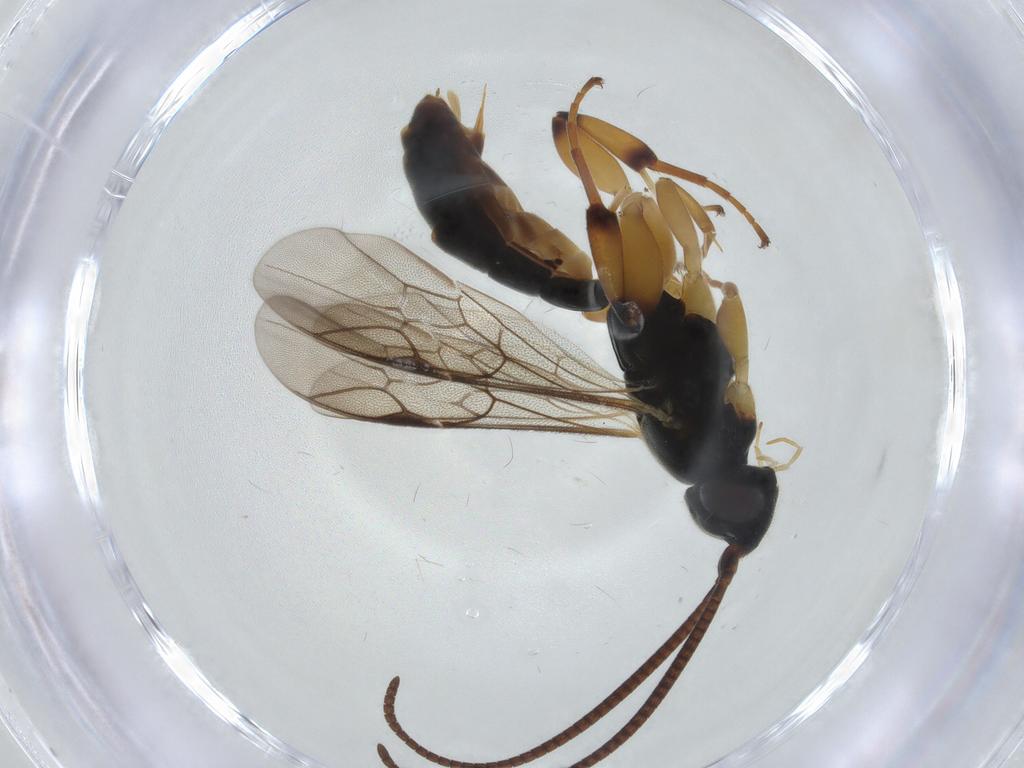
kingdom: Animalia
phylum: Arthropoda
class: Insecta
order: Hymenoptera
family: Ichneumonidae
